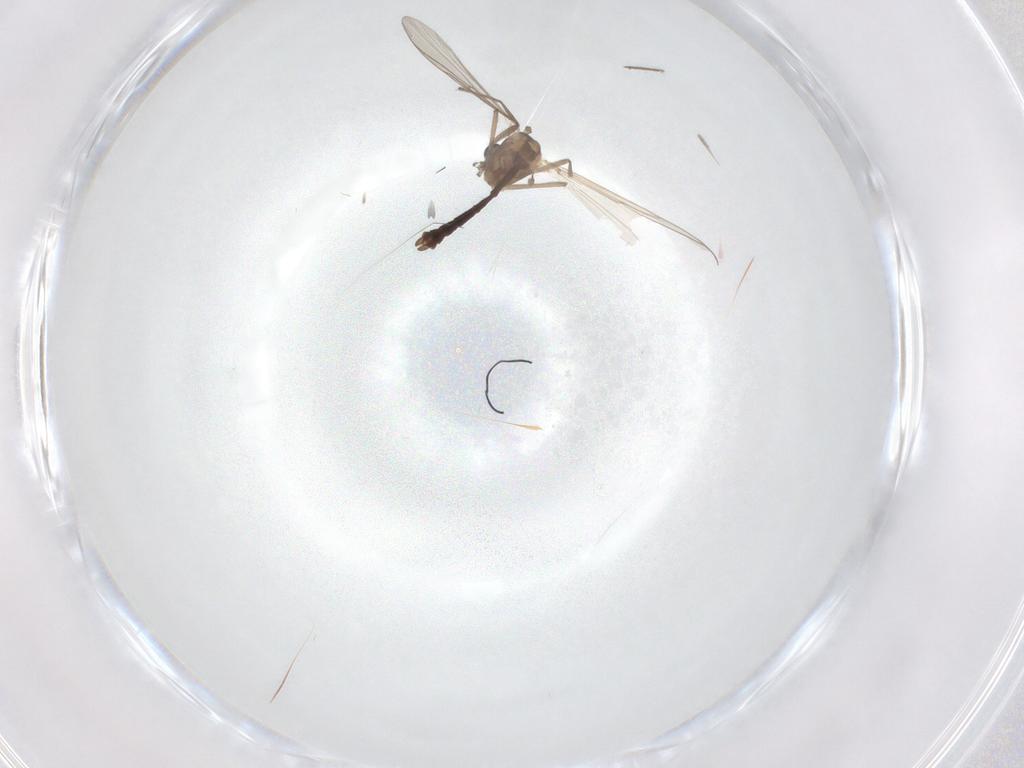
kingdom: Animalia
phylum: Arthropoda
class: Insecta
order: Diptera
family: Chironomidae
